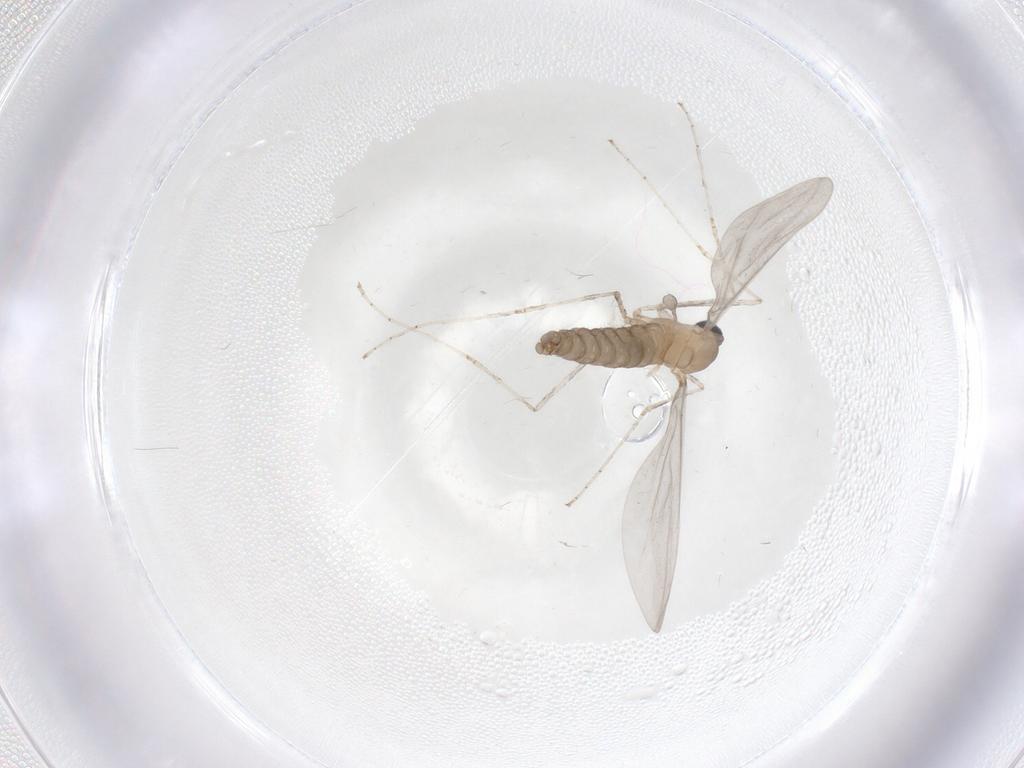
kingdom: Animalia
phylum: Arthropoda
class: Insecta
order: Diptera
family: Cecidomyiidae
